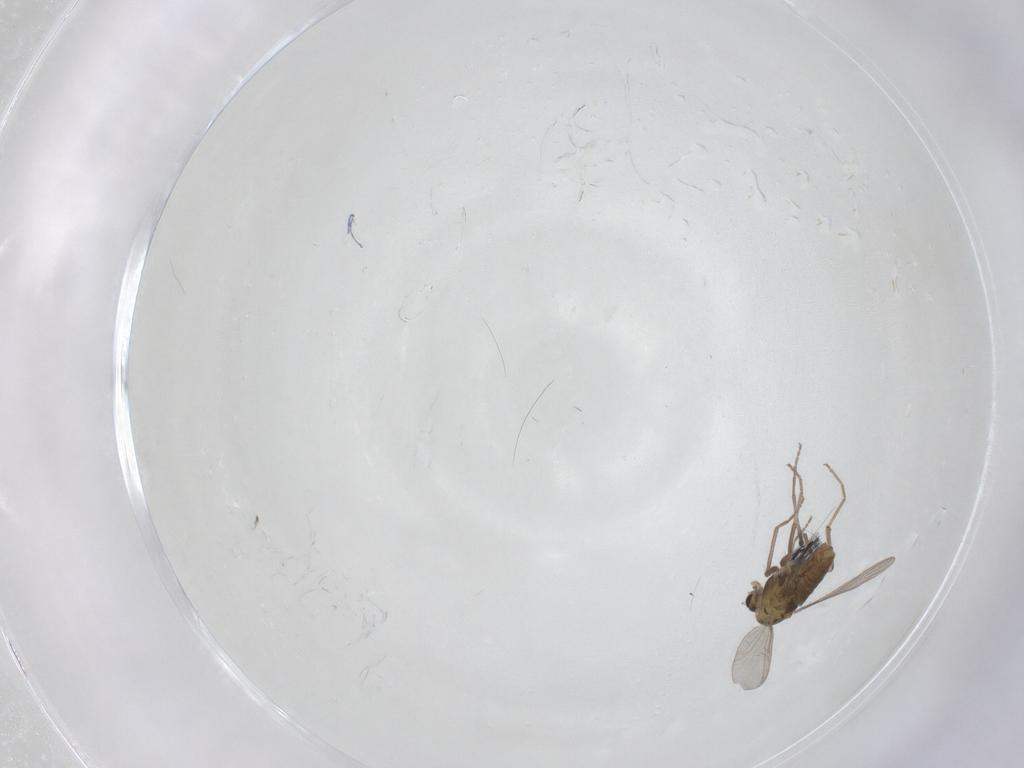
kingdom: Animalia
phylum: Arthropoda
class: Insecta
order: Diptera
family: Chironomidae
